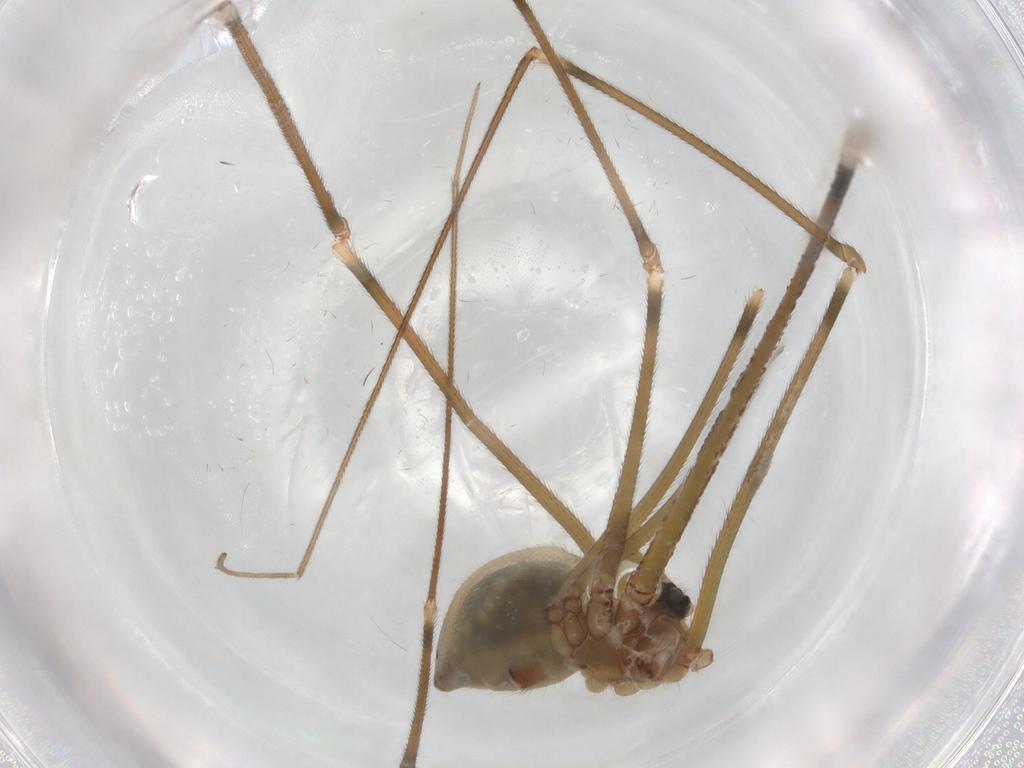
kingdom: Animalia
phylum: Arthropoda
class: Arachnida
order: Araneae
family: Pholcidae
